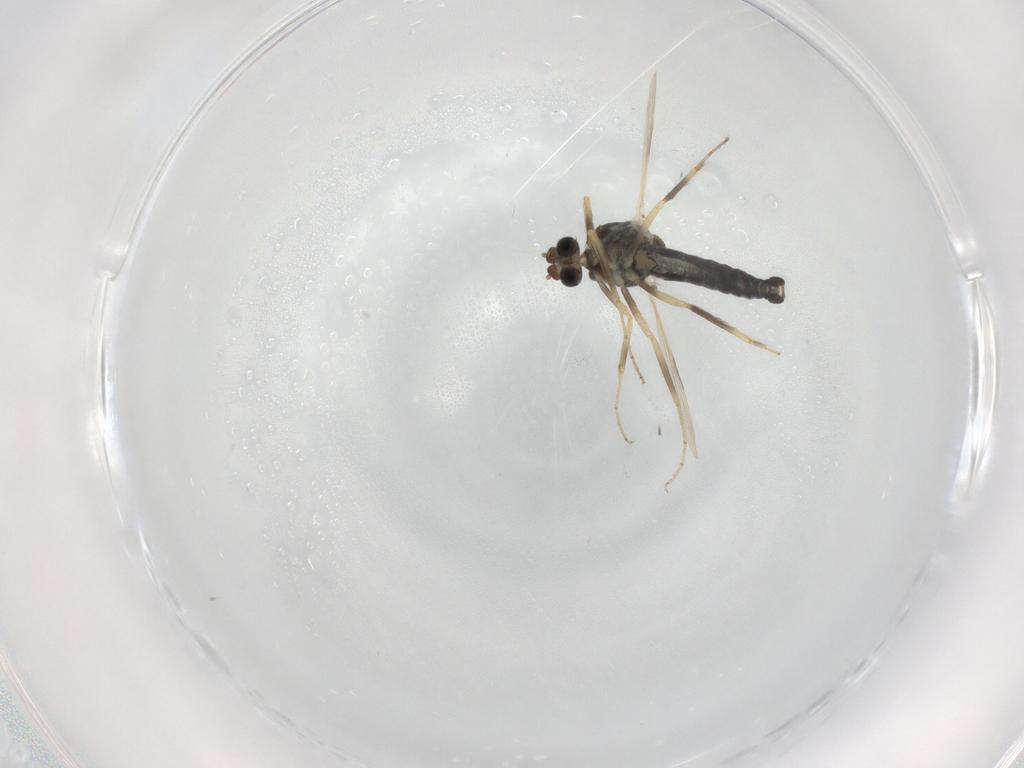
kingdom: Animalia
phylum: Arthropoda
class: Insecta
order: Diptera
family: Ceratopogonidae
